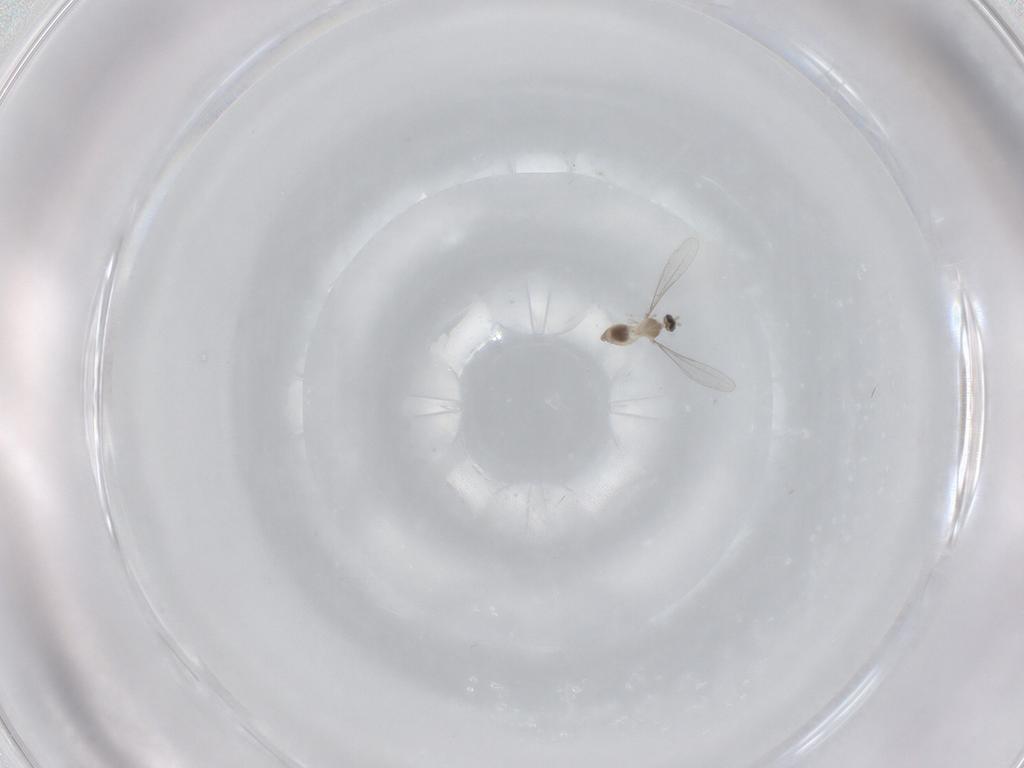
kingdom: Animalia
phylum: Arthropoda
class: Insecta
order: Diptera
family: Cecidomyiidae
